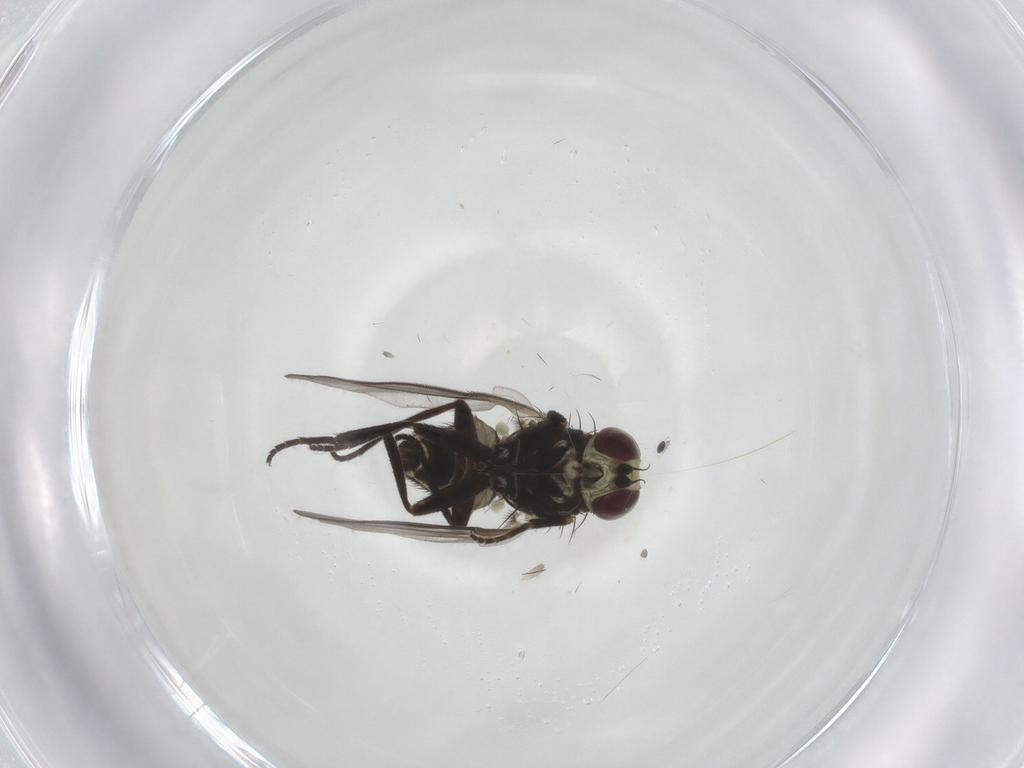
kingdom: Animalia
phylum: Arthropoda
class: Insecta
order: Diptera
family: Agromyzidae
